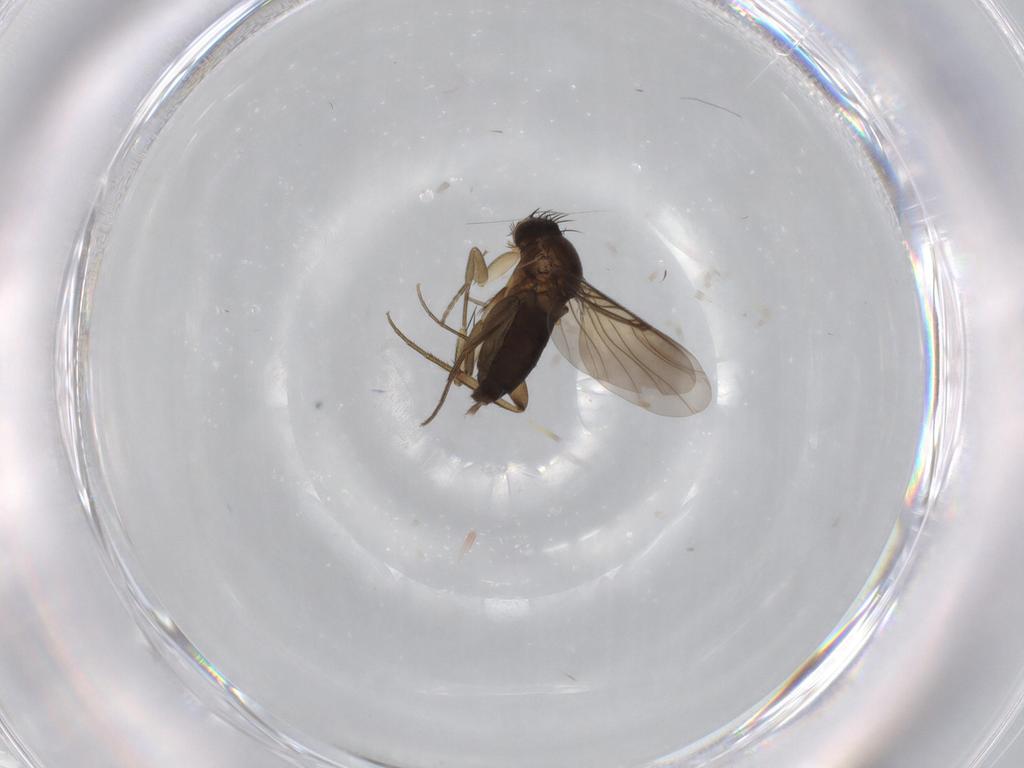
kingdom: Animalia
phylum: Arthropoda
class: Insecta
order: Diptera
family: Phoridae
